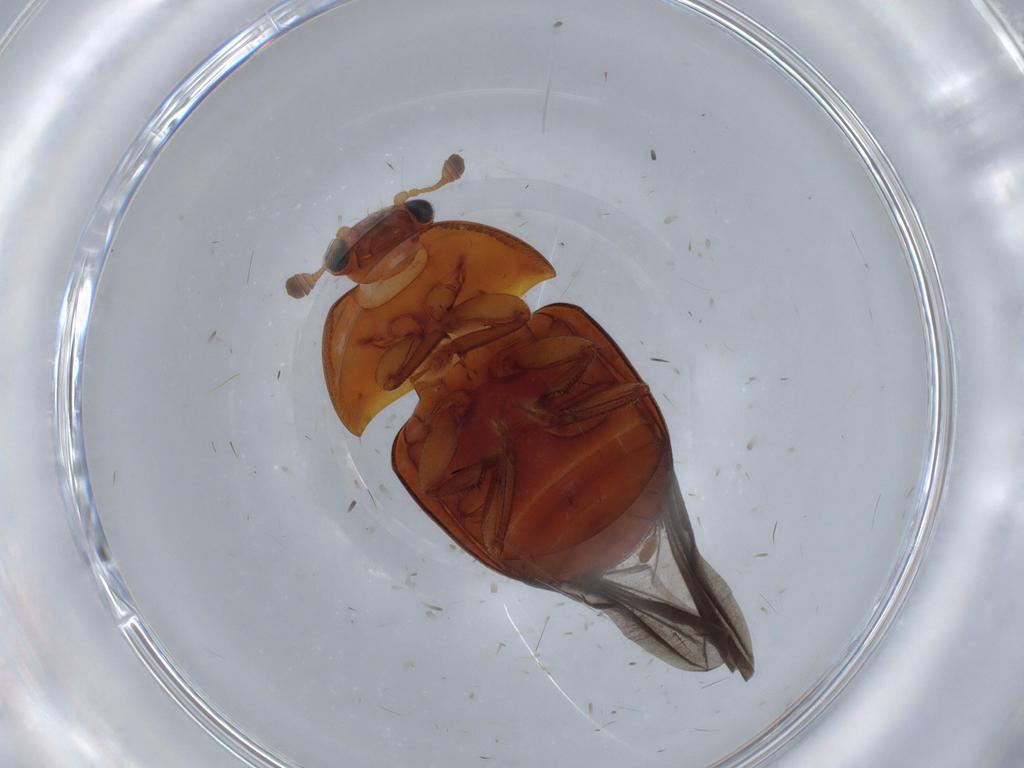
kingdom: Animalia
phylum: Arthropoda
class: Insecta
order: Coleoptera
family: Nitidulidae
